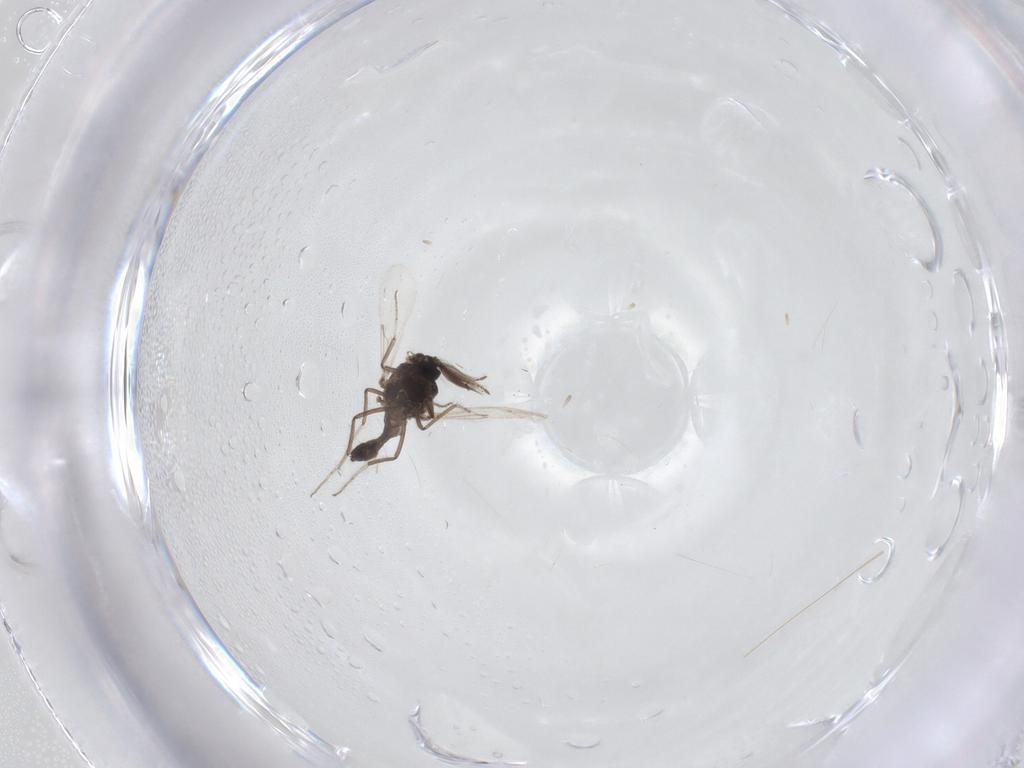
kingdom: Animalia
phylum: Arthropoda
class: Insecta
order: Diptera
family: Ceratopogonidae
